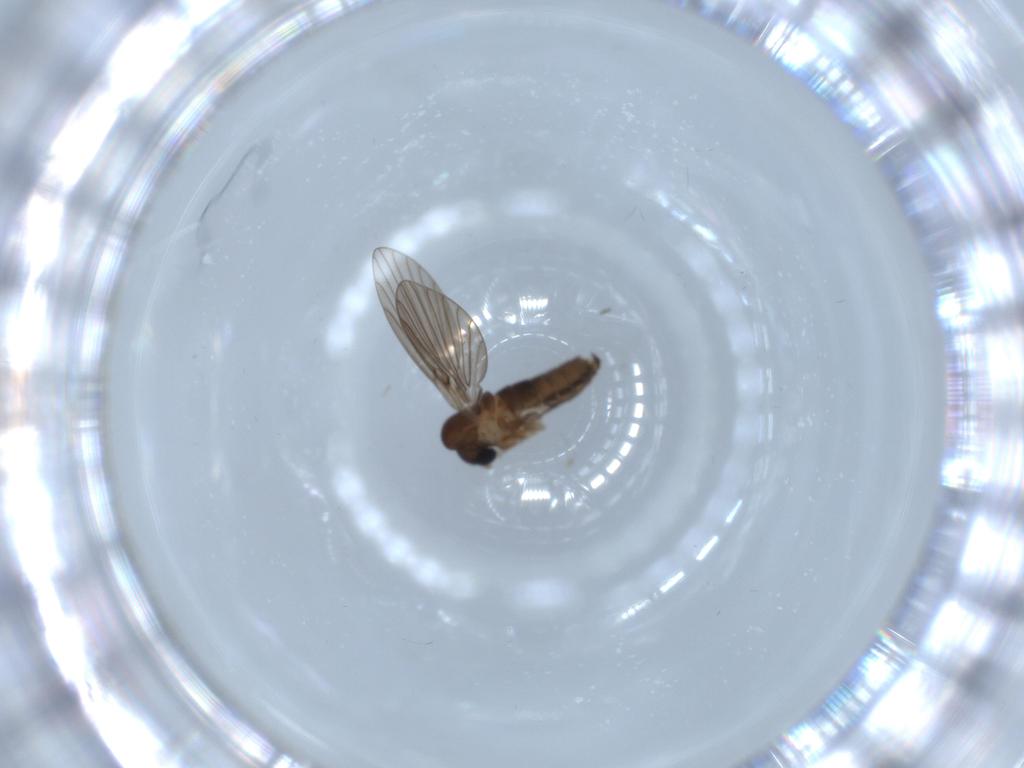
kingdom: Animalia
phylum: Arthropoda
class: Insecta
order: Diptera
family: Psychodidae
